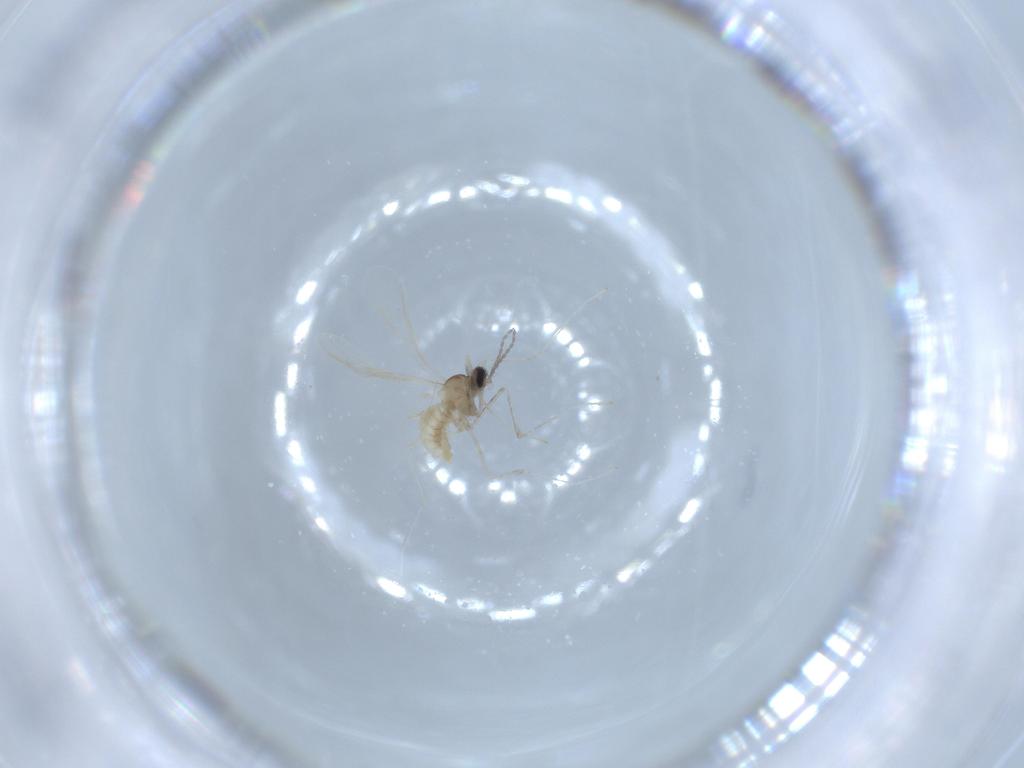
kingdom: Animalia
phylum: Arthropoda
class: Insecta
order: Diptera
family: Cecidomyiidae
